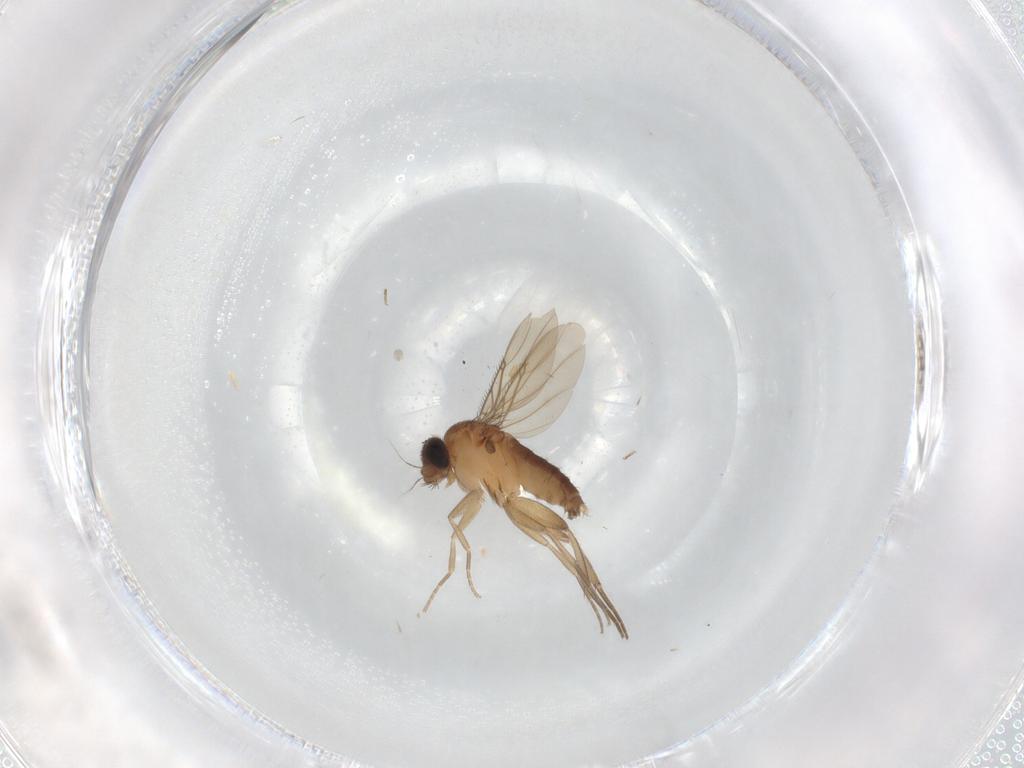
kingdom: Animalia
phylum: Arthropoda
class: Insecta
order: Diptera
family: Phoridae
